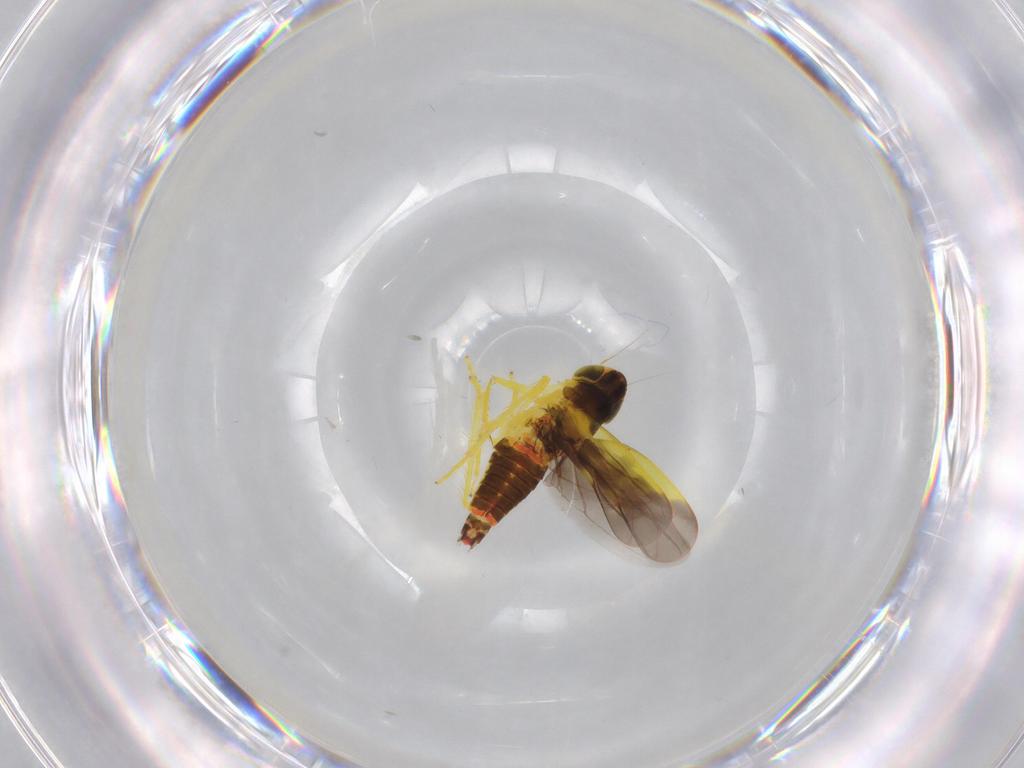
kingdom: Animalia
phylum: Arthropoda
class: Insecta
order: Hemiptera
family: Cicadellidae
